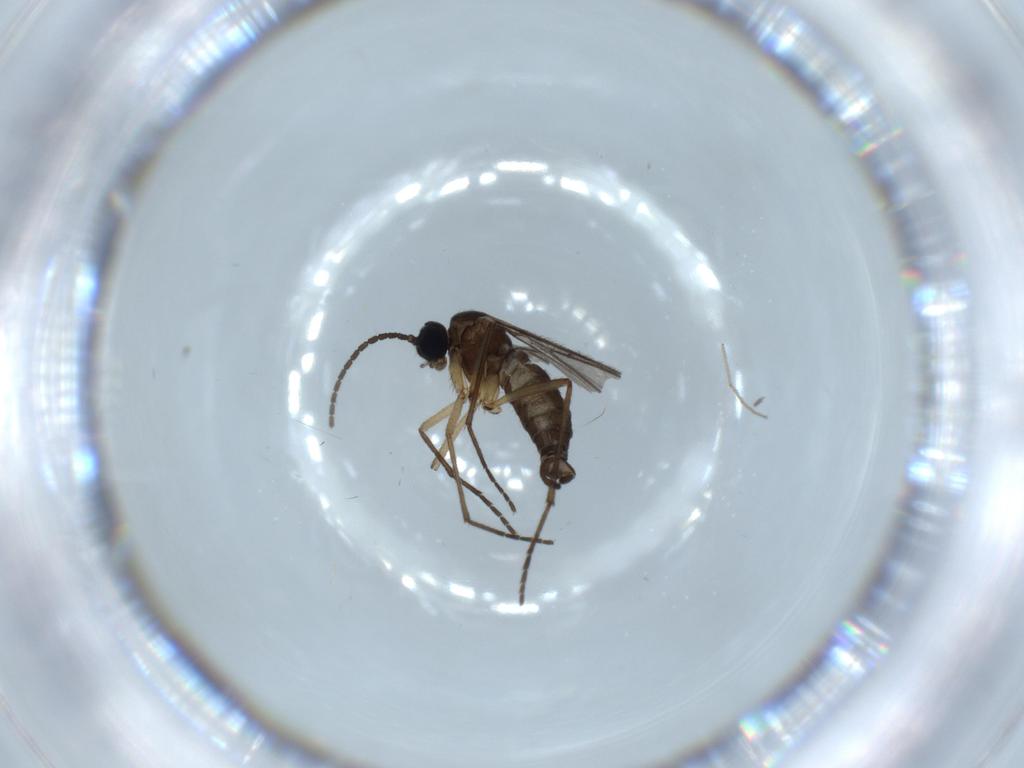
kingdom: Animalia
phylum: Arthropoda
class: Insecta
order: Diptera
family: Sciaridae
